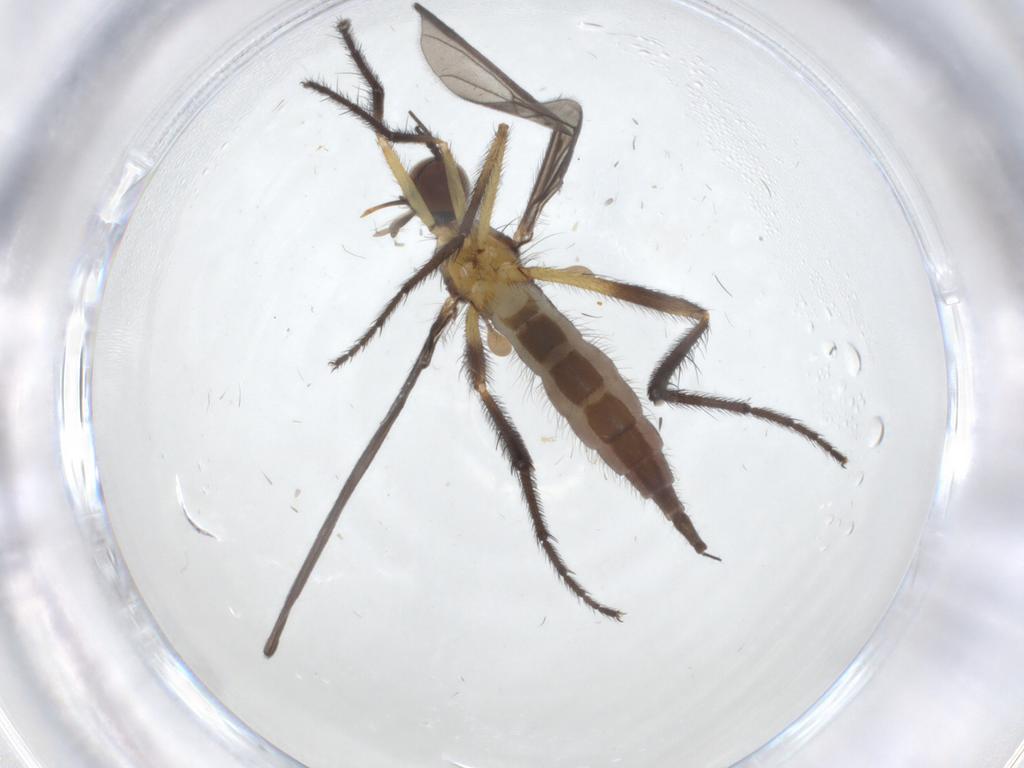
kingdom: Animalia
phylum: Arthropoda
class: Insecta
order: Diptera
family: Empididae
